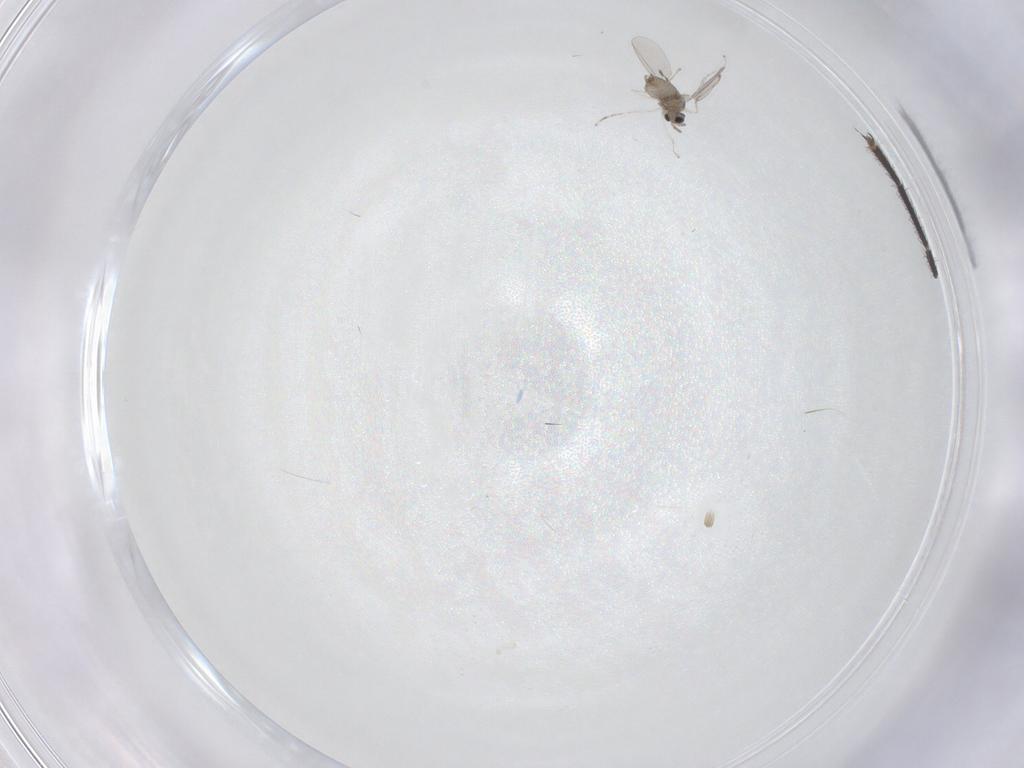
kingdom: Animalia
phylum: Arthropoda
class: Insecta
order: Diptera
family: Cecidomyiidae
